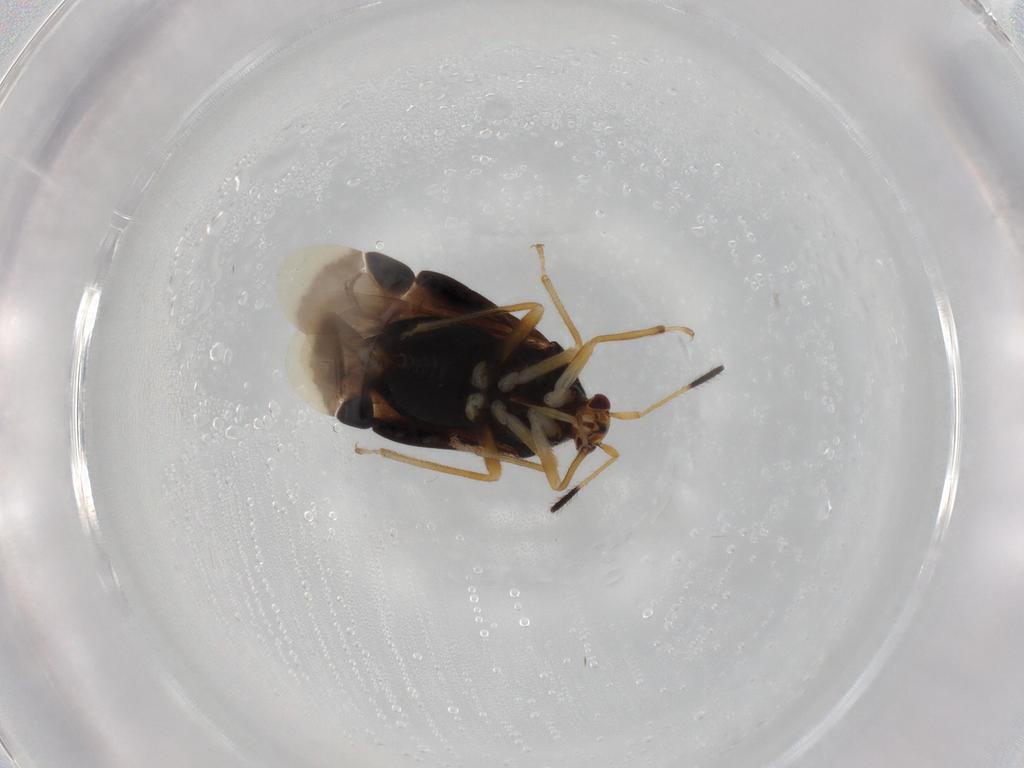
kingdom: Animalia
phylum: Arthropoda
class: Insecta
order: Hemiptera
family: Miridae
